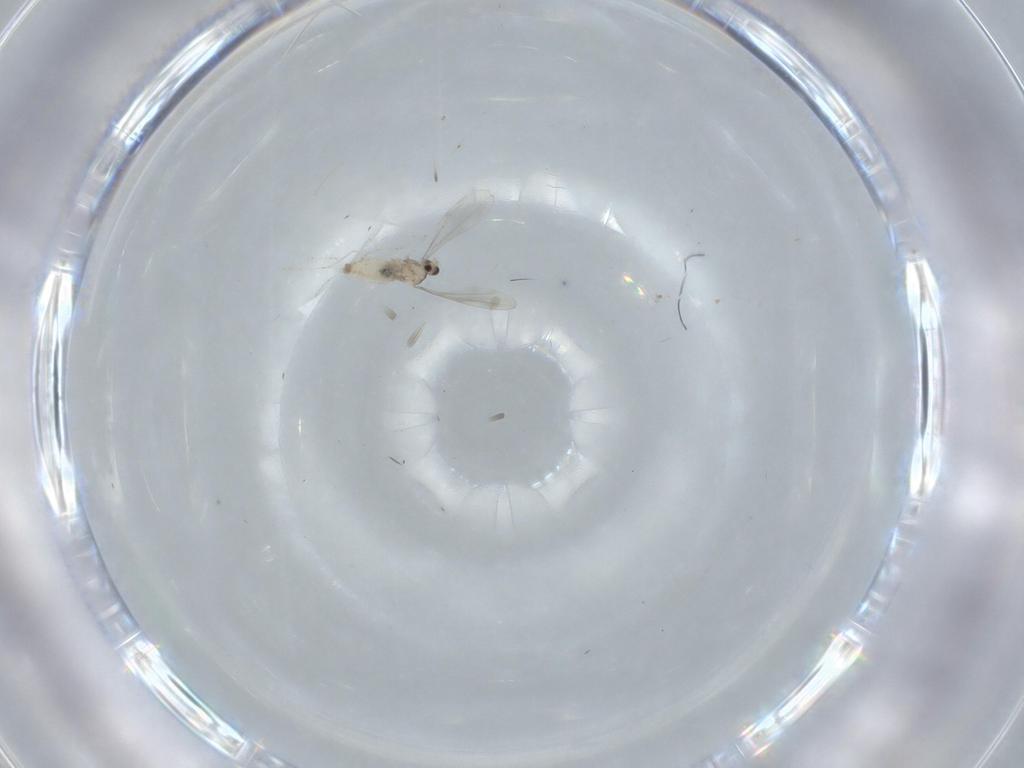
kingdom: Animalia
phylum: Arthropoda
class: Insecta
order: Diptera
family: Cecidomyiidae
